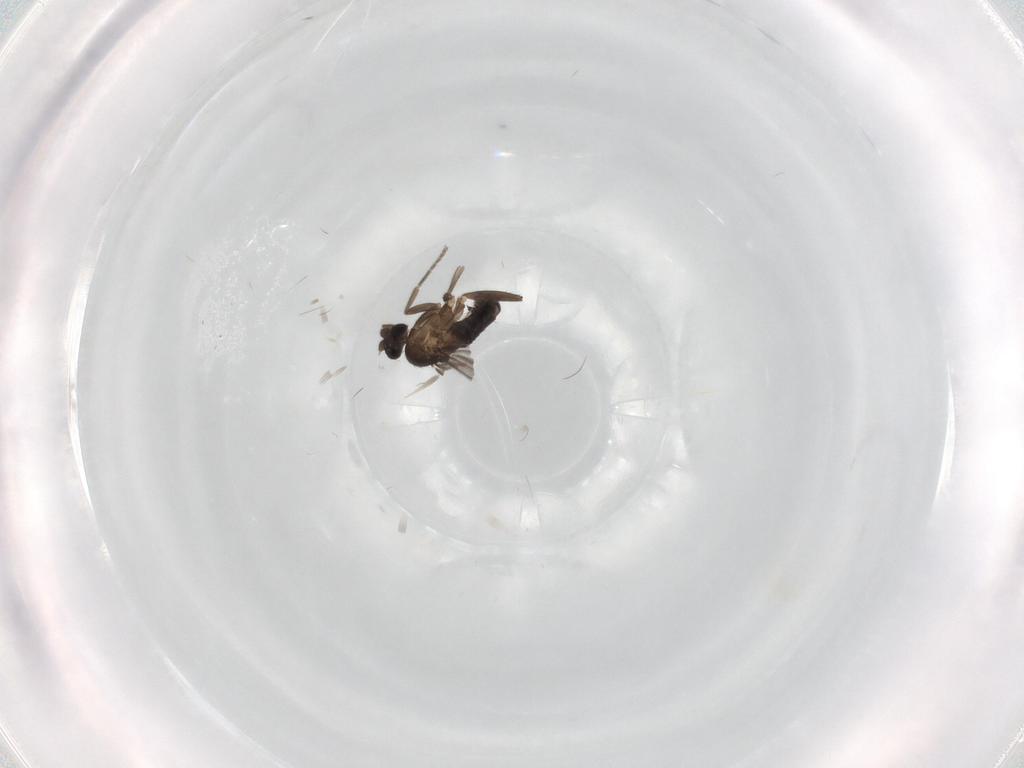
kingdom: Animalia
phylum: Arthropoda
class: Insecta
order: Diptera
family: Phoridae
